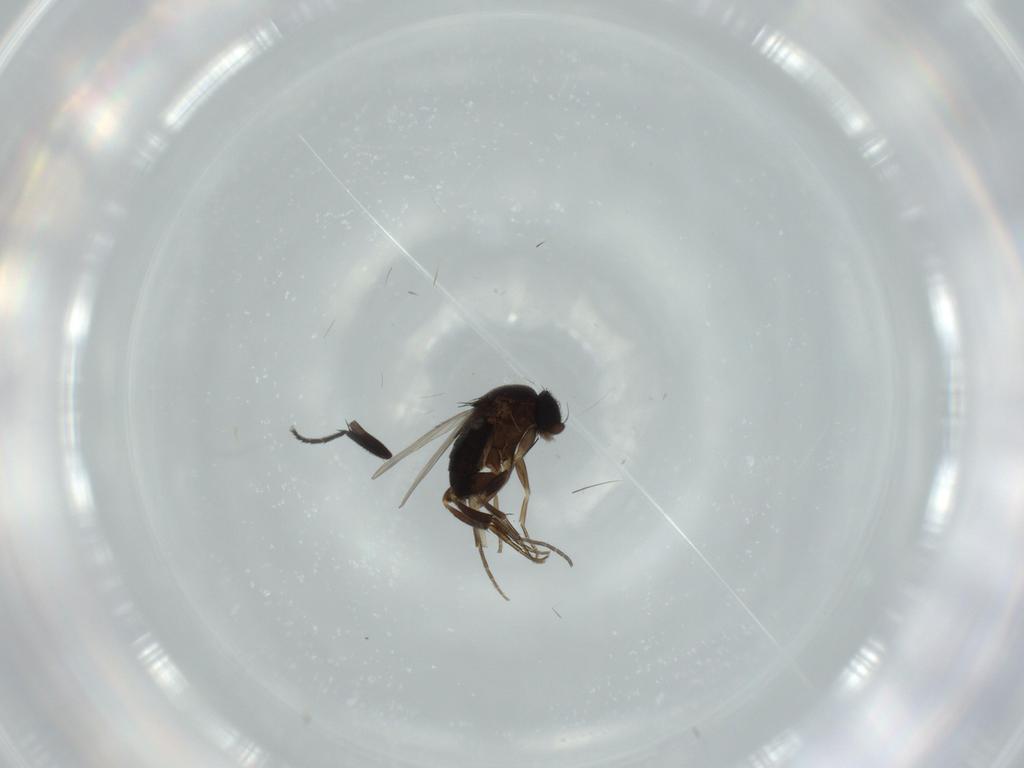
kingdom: Animalia
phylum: Arthropoda
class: Insecta
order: Diptera
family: Phoridae
